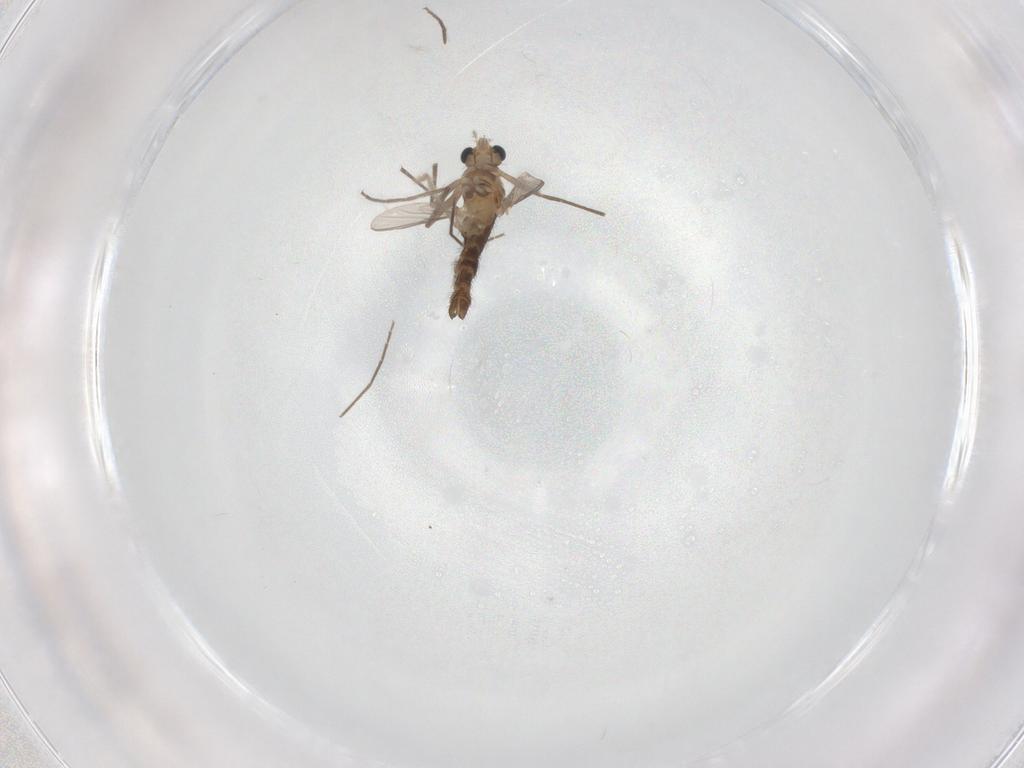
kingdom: Animalia
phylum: Arthropoda
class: Insecta
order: Diptera
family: Chironomidae
